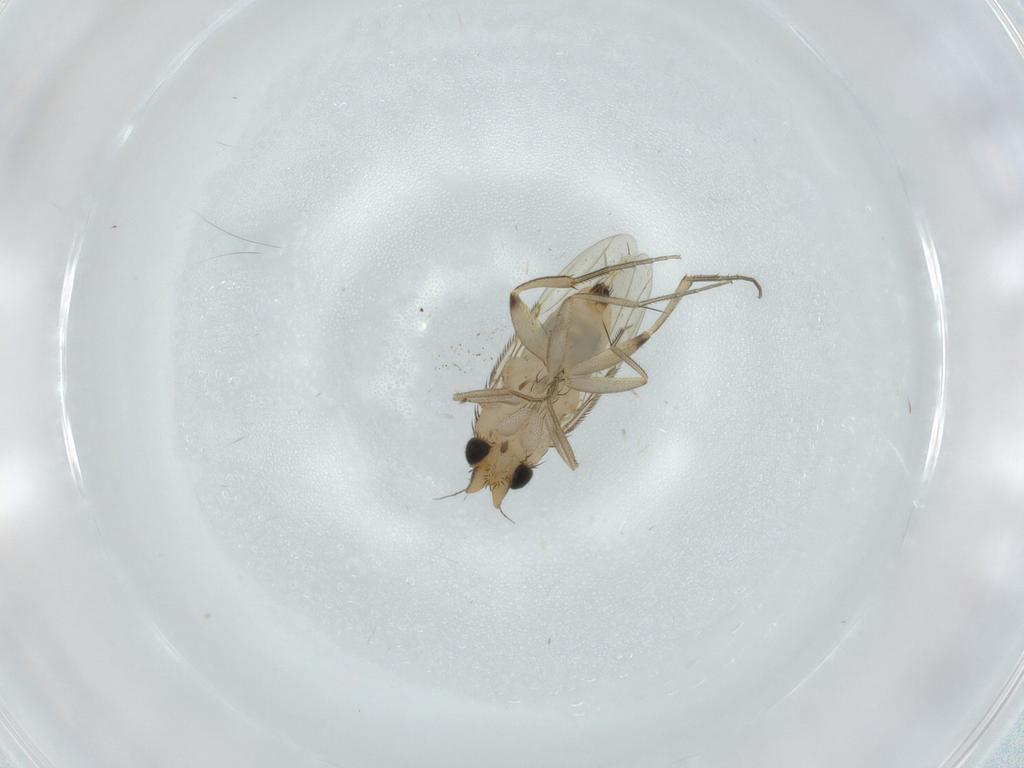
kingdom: Animalia
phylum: Arthropoda
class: Insecta
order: Diptera
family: Phoridae
